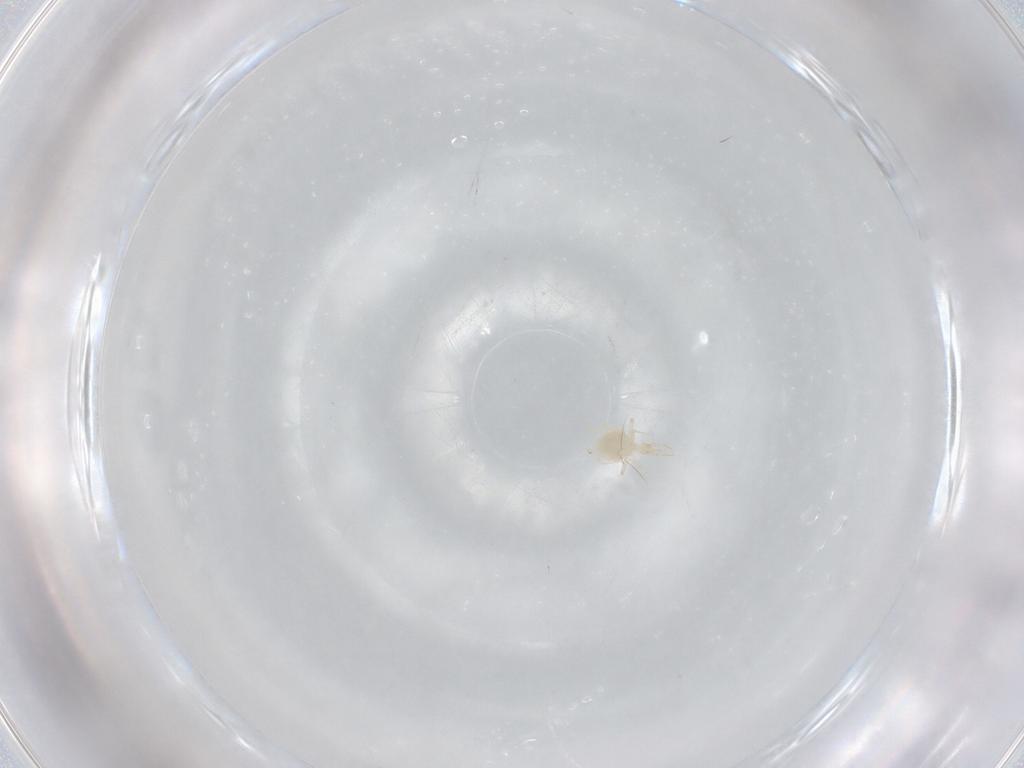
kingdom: Animalia
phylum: Arthropoda
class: Arachnida
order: Trombidiformes
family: Cunaxidae
